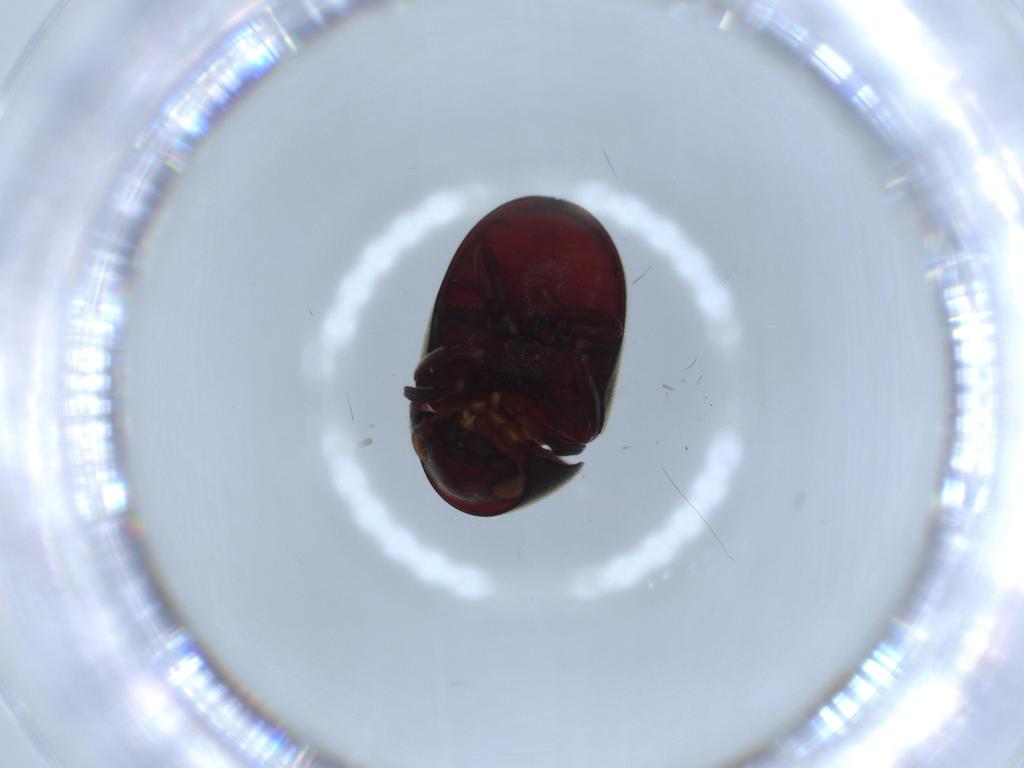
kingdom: Animalia
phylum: Arthropoda
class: Insecta
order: Coleoptera
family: Ptinidae
